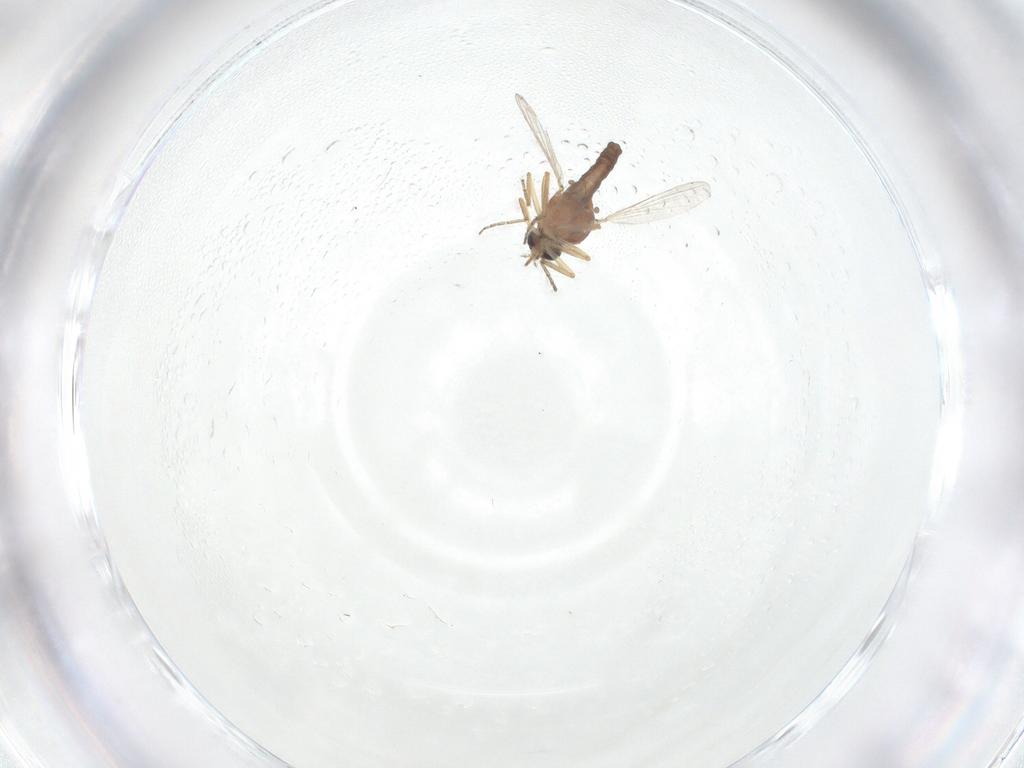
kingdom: Animalia
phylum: Arthropoda
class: Insecta
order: Diptera
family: Ceratopogonidae
